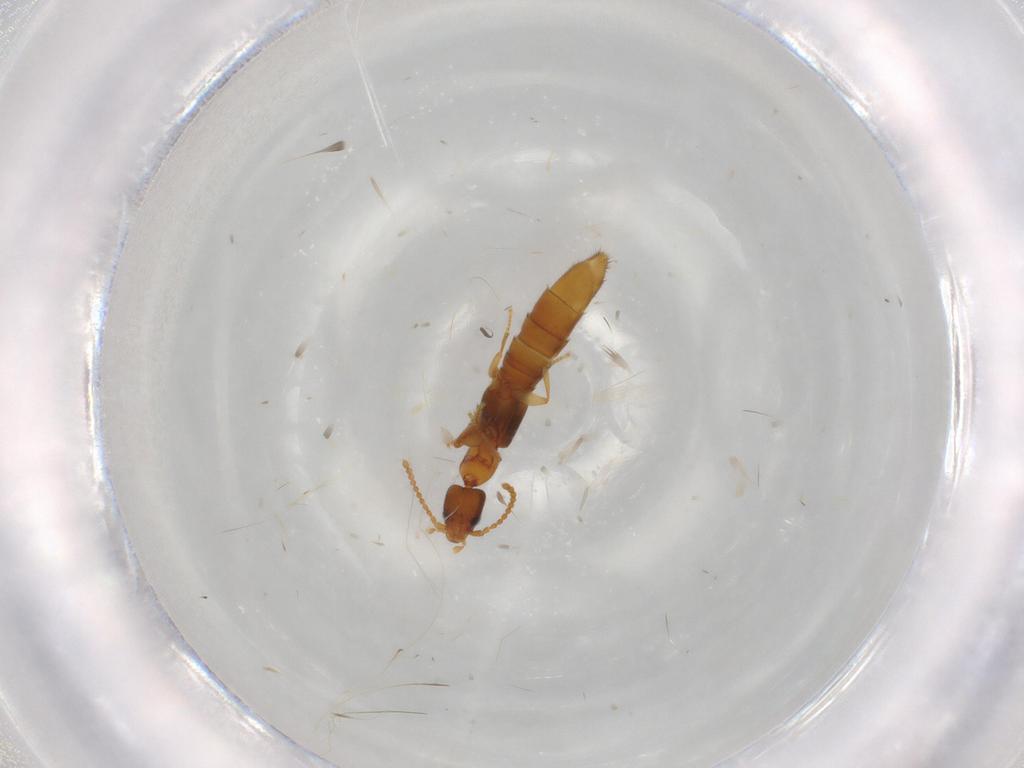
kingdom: Animalia
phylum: Arthropoda
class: Insecta
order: Coleoptera
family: Staphylinidae
